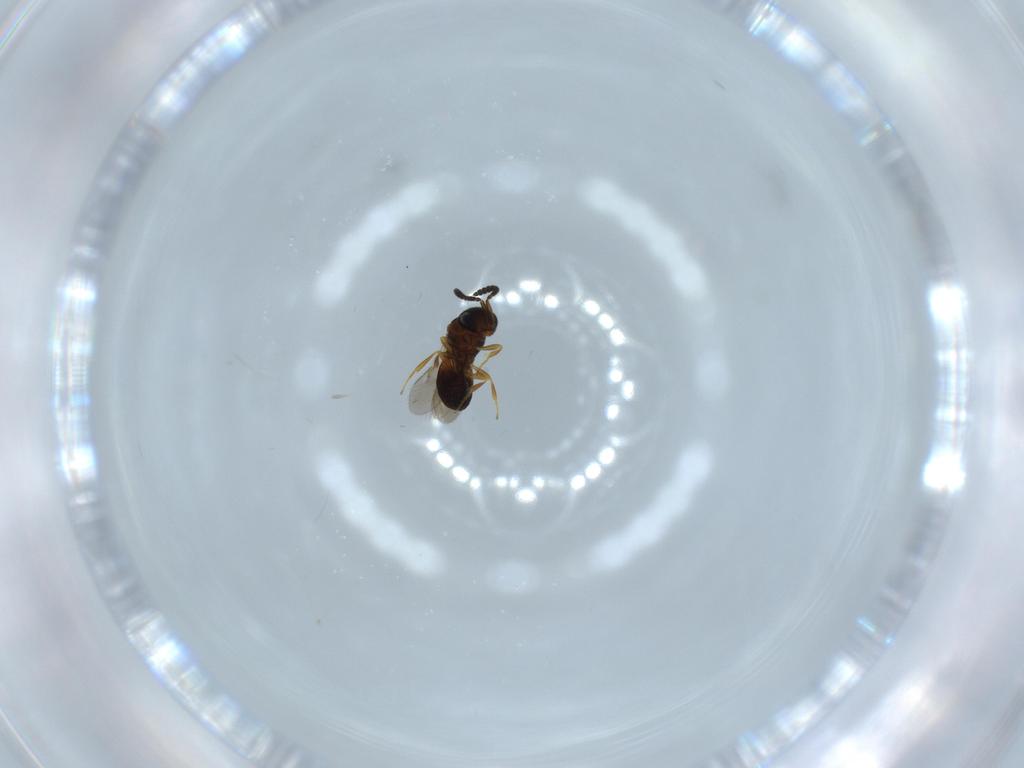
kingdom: Animalia
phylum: Arthropoda
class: Insecta
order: Hymenoptera
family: Scelionidae
